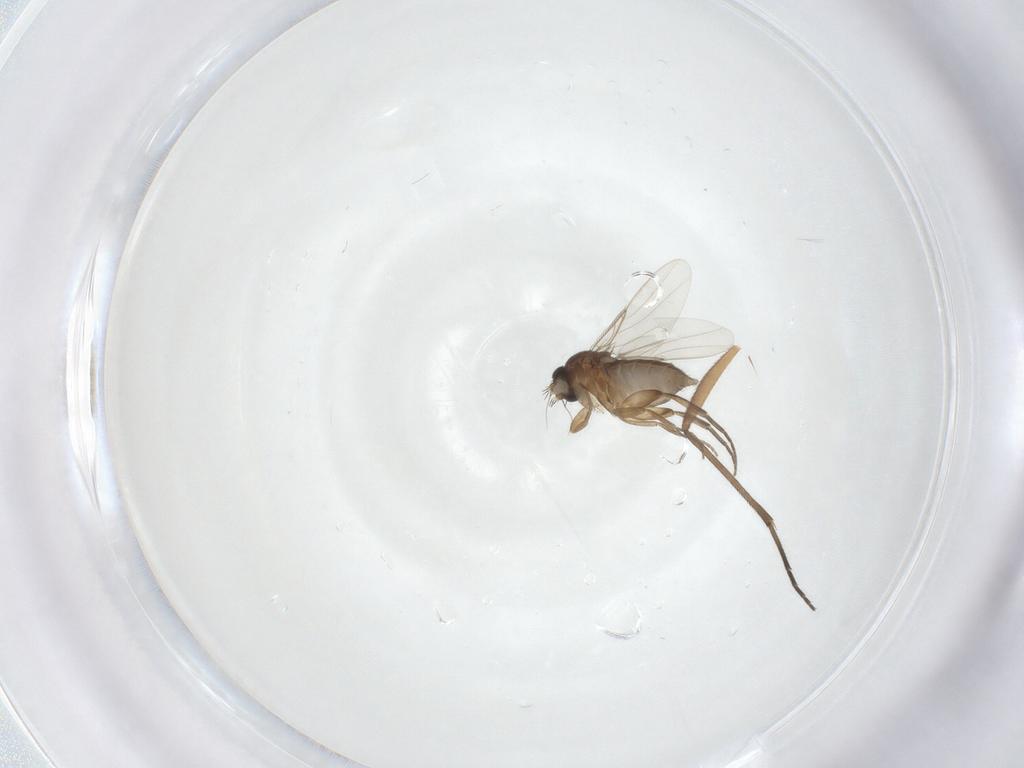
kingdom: Animalia
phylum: Arthropoda
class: Insecta
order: Diptera
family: Phoridae
